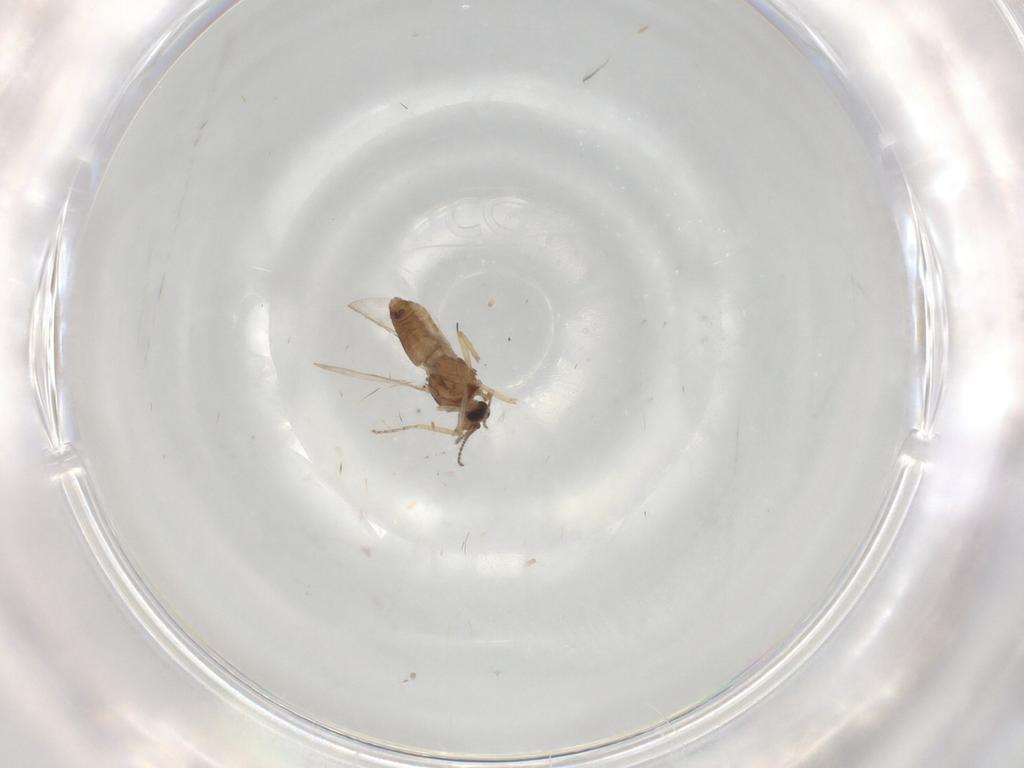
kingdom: Animalia
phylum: Arthropoda
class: Insecta
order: Diptera
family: Ceratopogonidae
